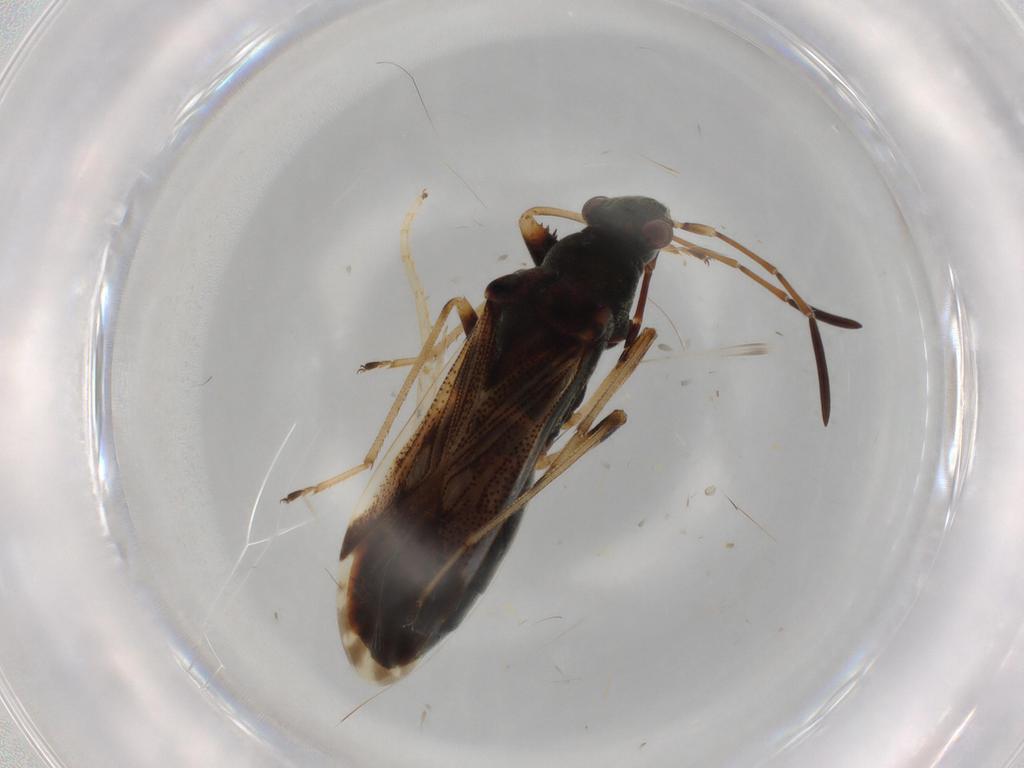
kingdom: Animalia
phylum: Arthropoda
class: Insecta
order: Hemiptera
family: Rhyparochromidae
